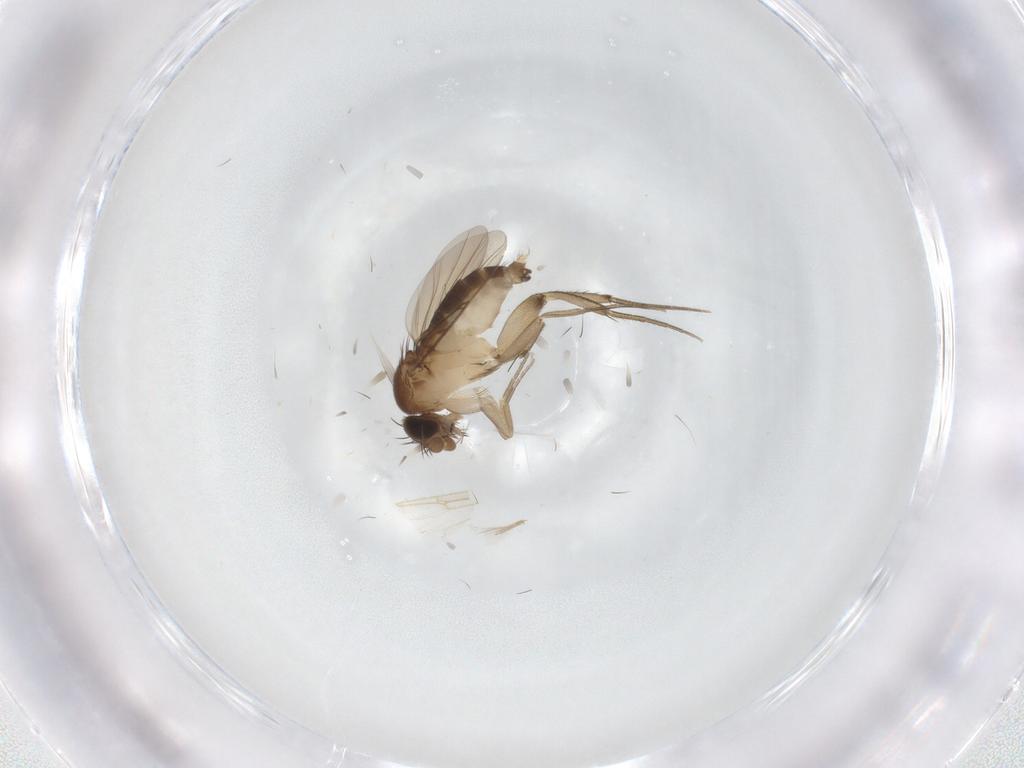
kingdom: Animalia
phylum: Arthropoda
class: Insecta
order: Diptera
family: Phoridae
